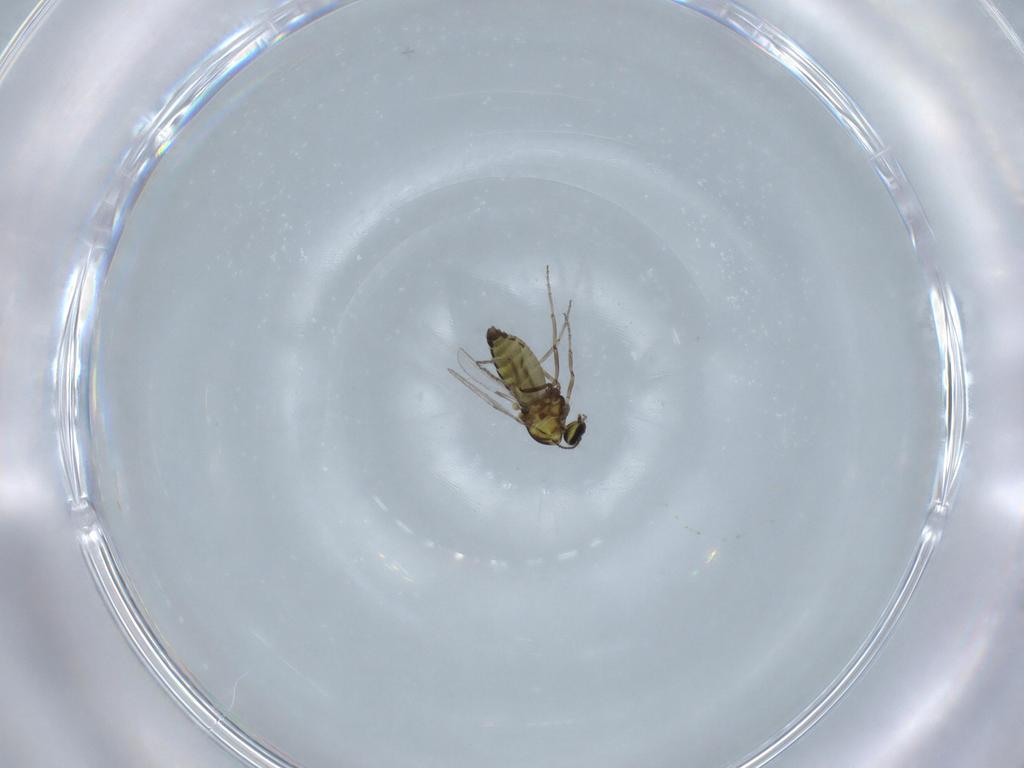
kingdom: Animalia
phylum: Arthropoda
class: Insecta
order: Diptera
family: Ceratopogonidae
